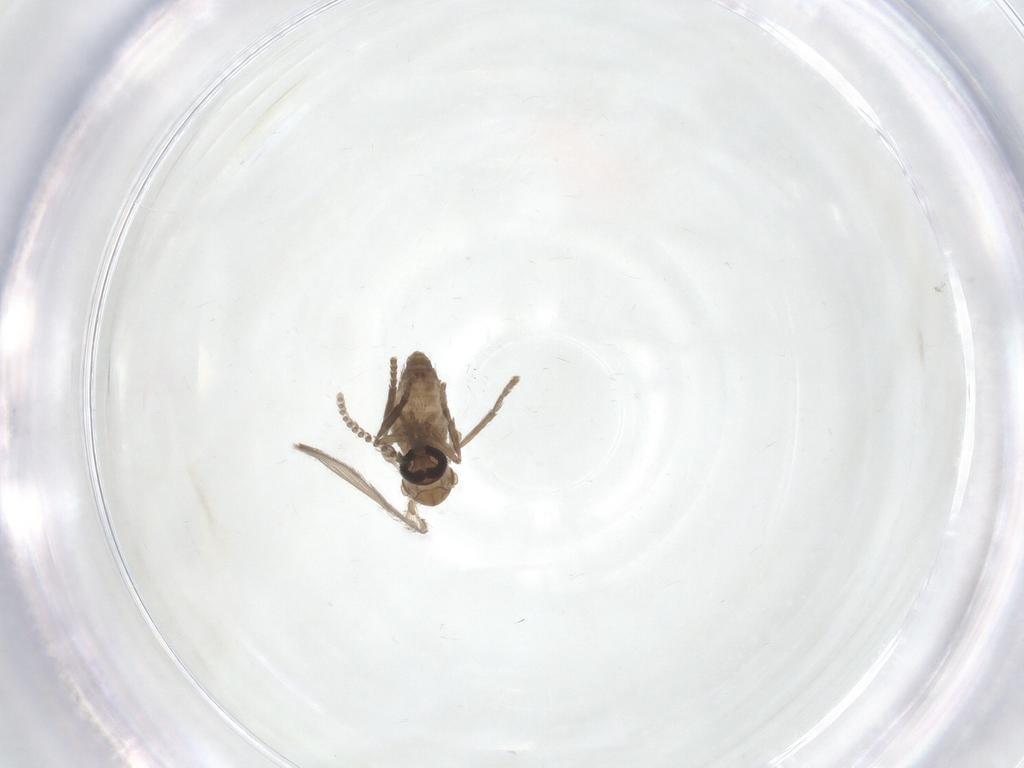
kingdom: Animalia
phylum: Arthropoda
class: Insecta
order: Diptera
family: Psychodidae
